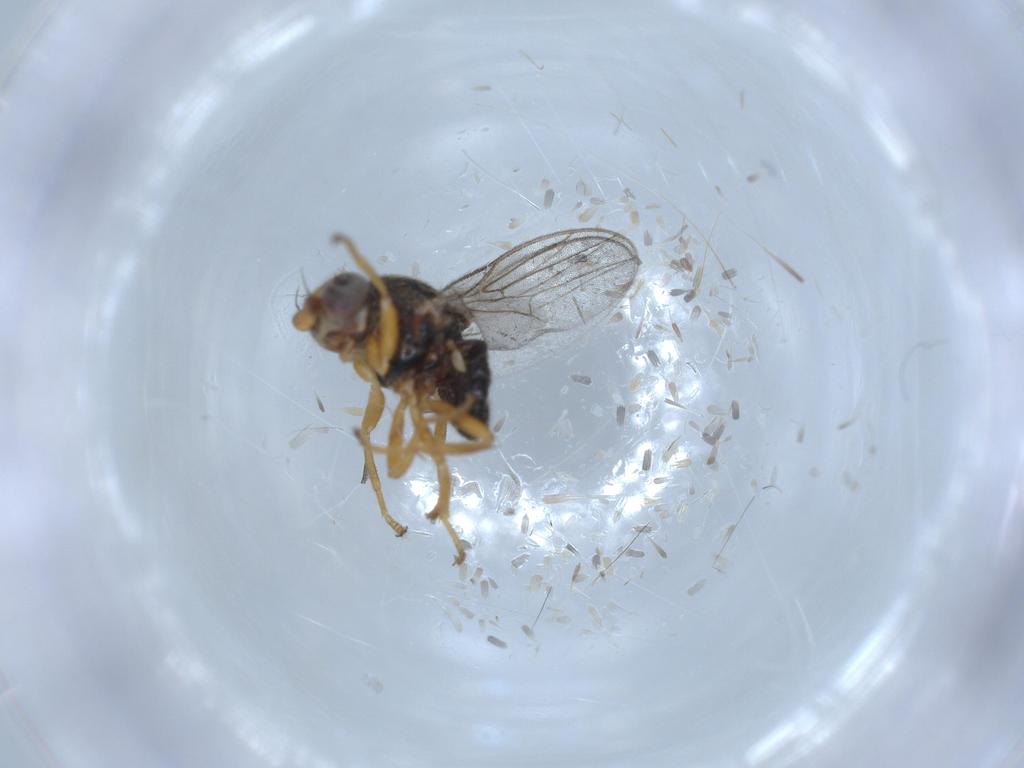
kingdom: Animalia
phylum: Arthropoda
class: Insecta
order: Diptera
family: Chloropidae
